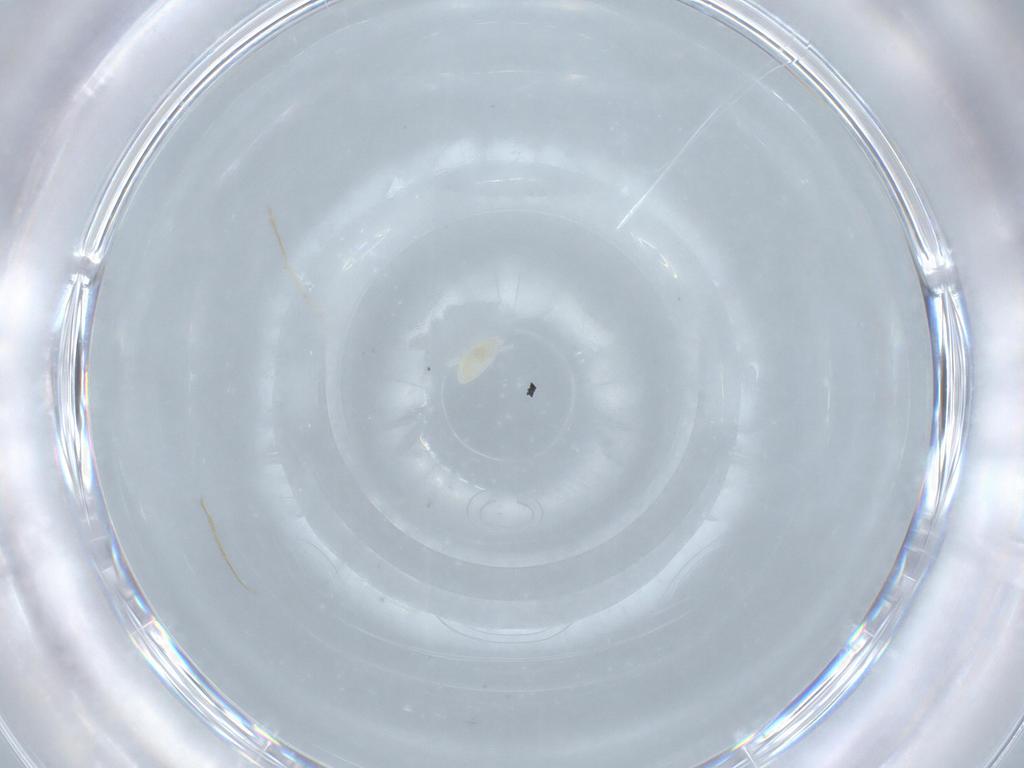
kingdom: Animalia
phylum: Arthropoda
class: Arachnida
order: Trombidiformes
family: Eupodidae
